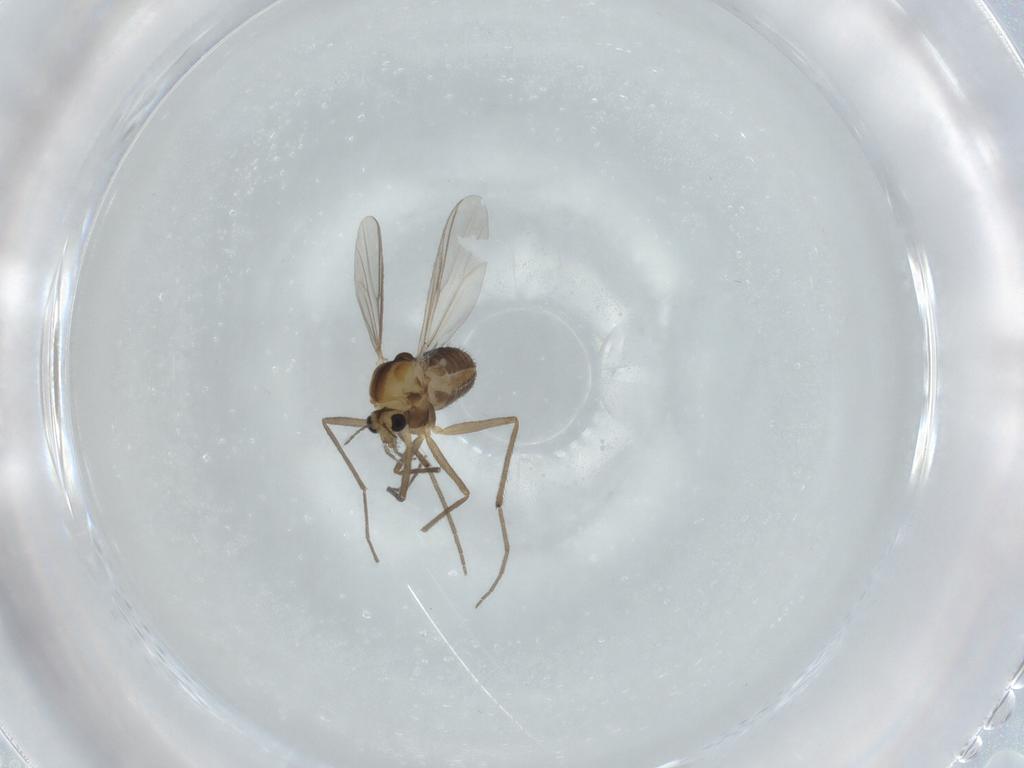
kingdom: Animalia
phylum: Arthropoda
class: Insecta
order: Diptera
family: Chironomidae
